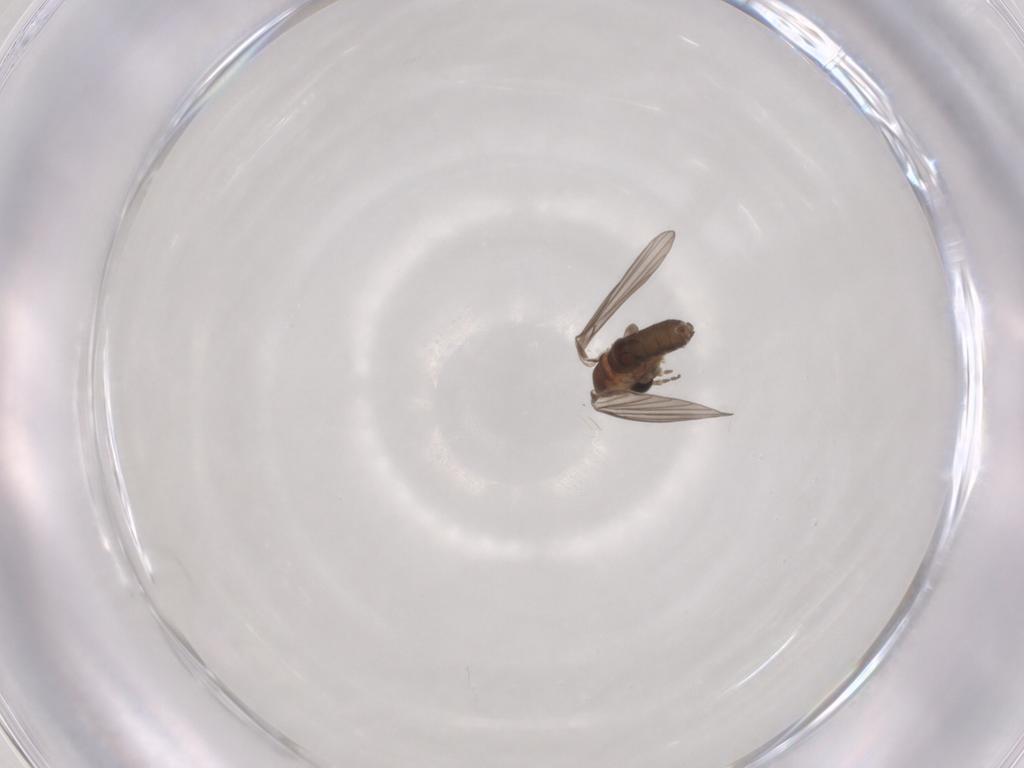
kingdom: Animalia
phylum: Arthropoda
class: Insecta
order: Diptera
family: Psychodidae
